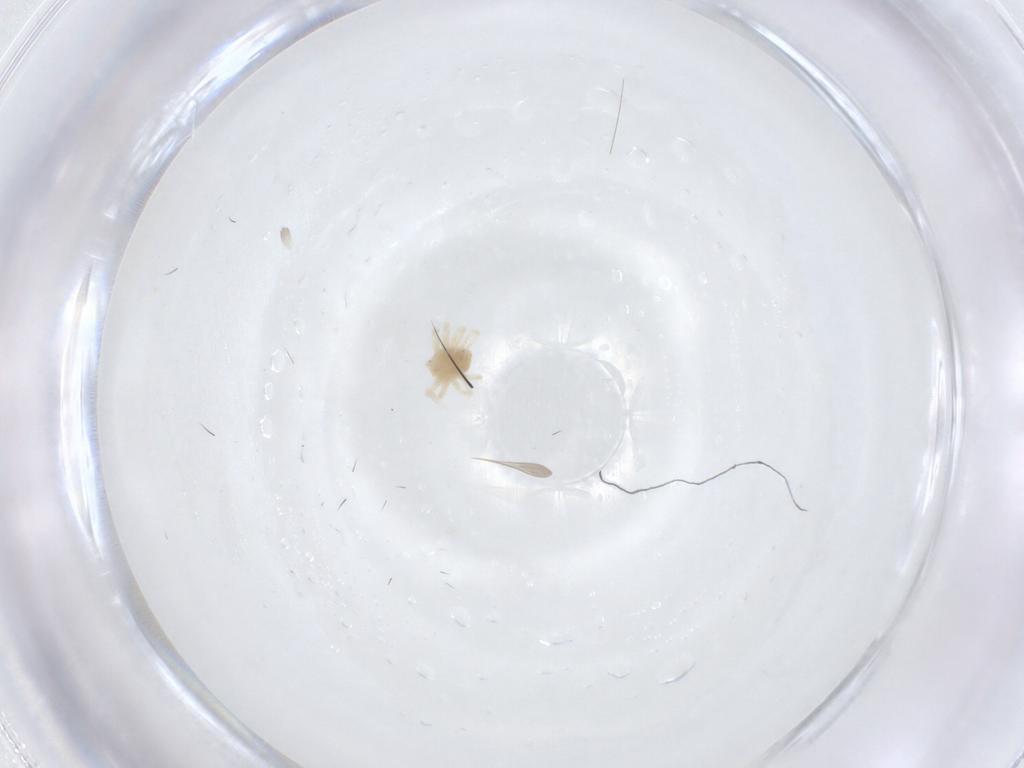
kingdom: Animalia
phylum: Arthropoda
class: Arachnida
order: Trombidiformes
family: Anystidae
